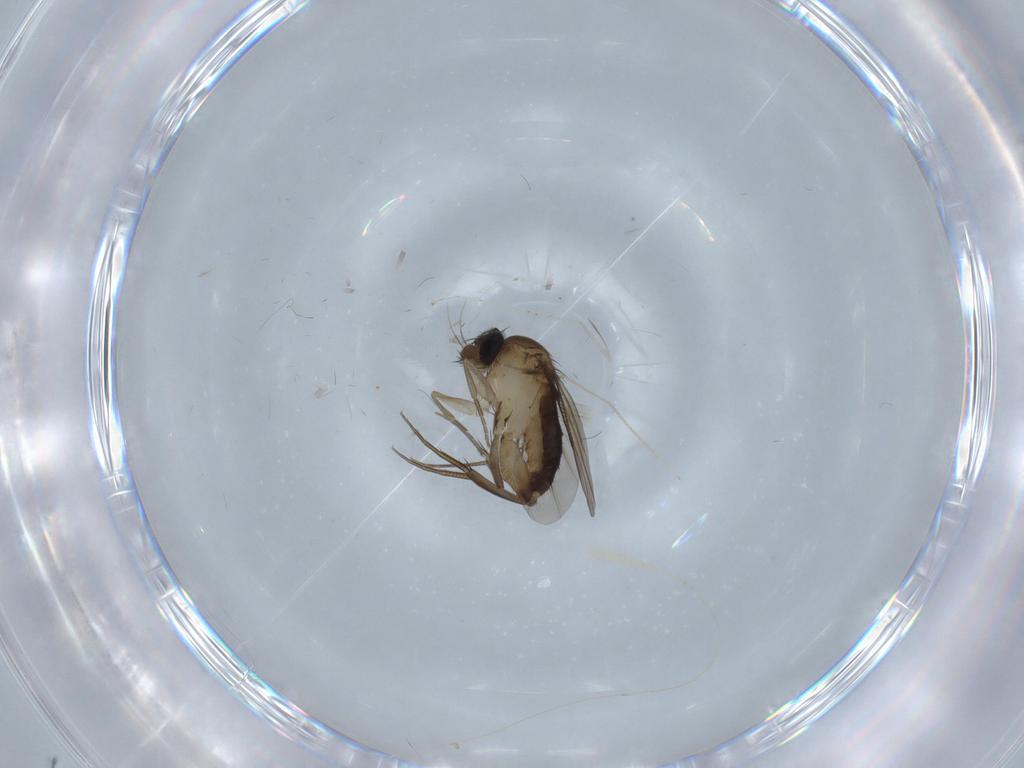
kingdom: Animalia
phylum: Arthropoda
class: Insecta
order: Diptera
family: Phoridae
